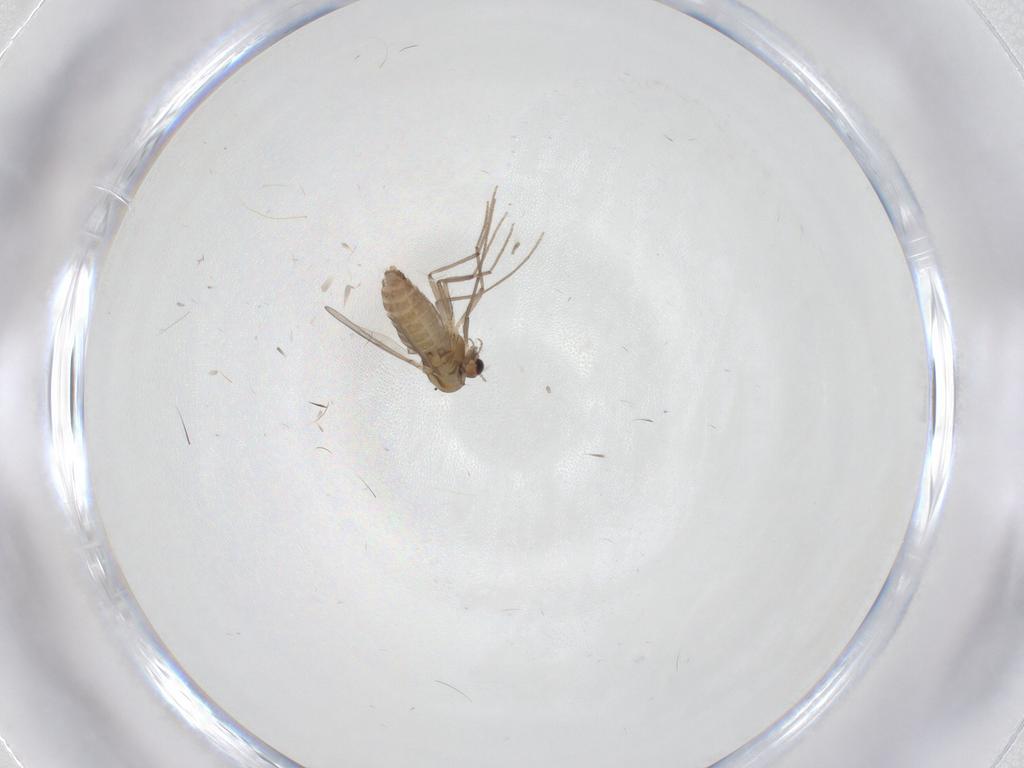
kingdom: Animalia
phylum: Arthropoda
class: Insecta
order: Diptera
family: Chironomidae
